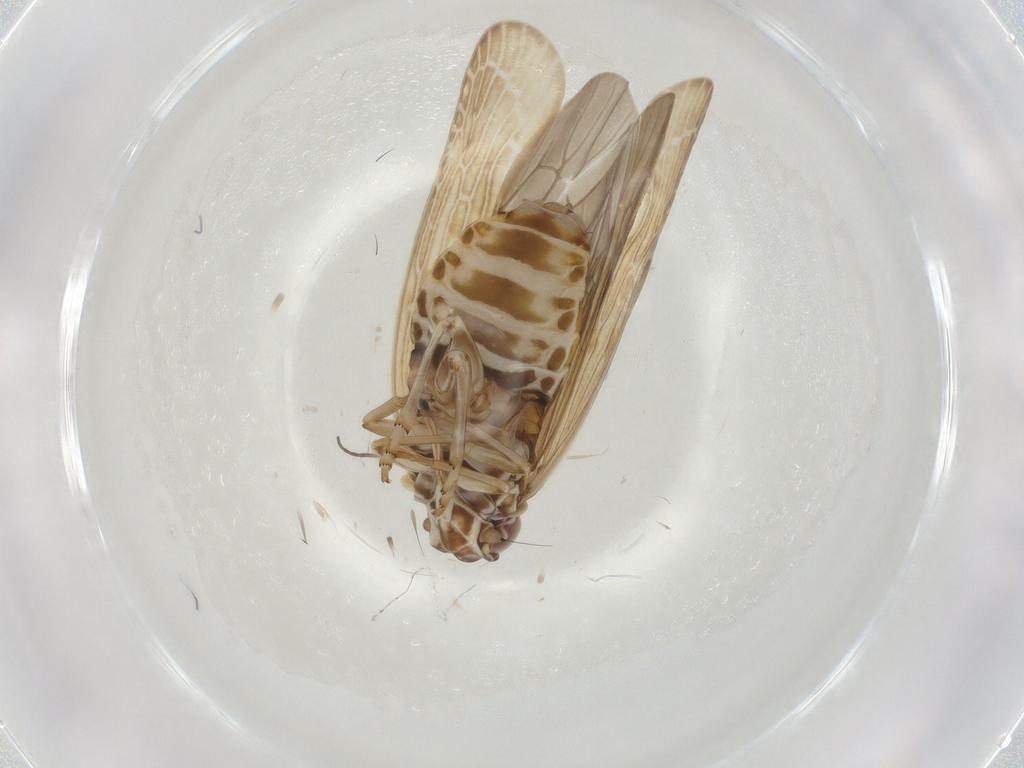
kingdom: Animalia
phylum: Arthropoda
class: Insecta
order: Hemiptera
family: Achilidae
